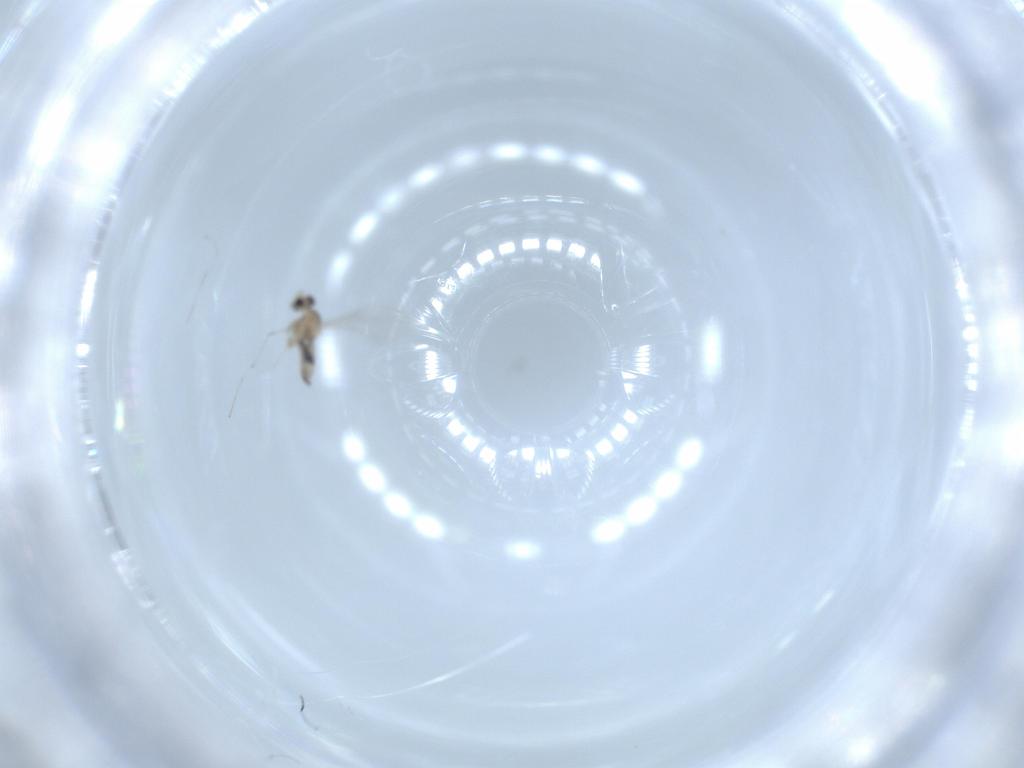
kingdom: Animalia
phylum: Arthropoda
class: Insecta
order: Diptera
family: Cecidomyiidae
